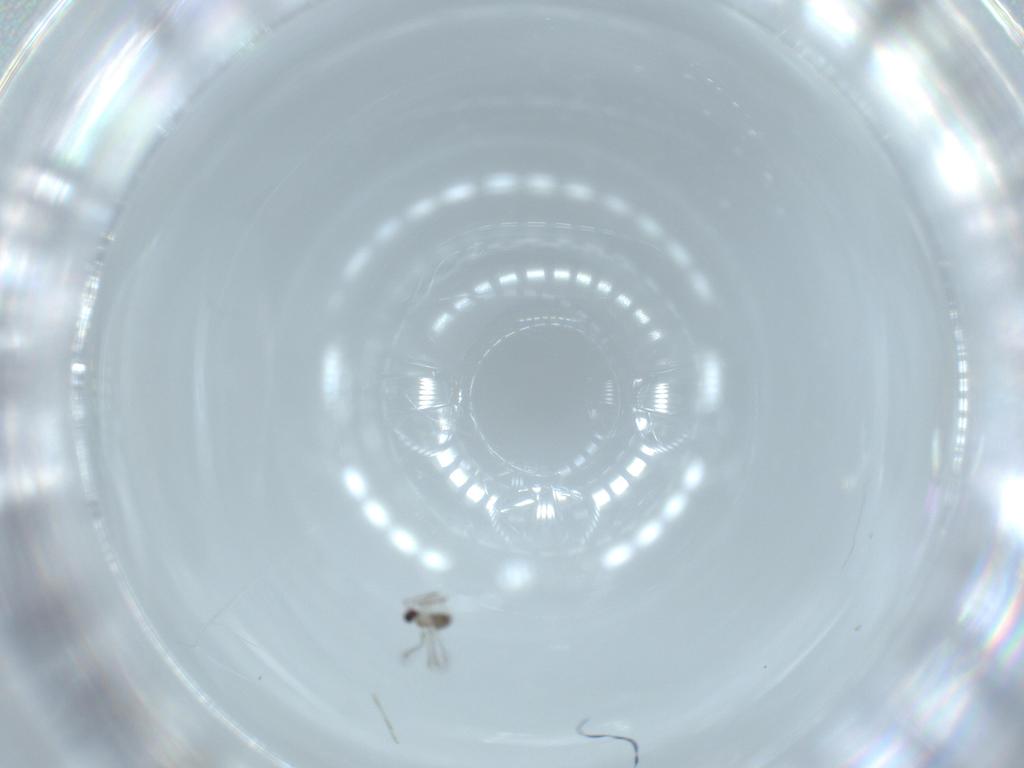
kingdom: Animalia
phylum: Arthropoda
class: Insecta
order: Hymenoptera
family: Mymaridae
